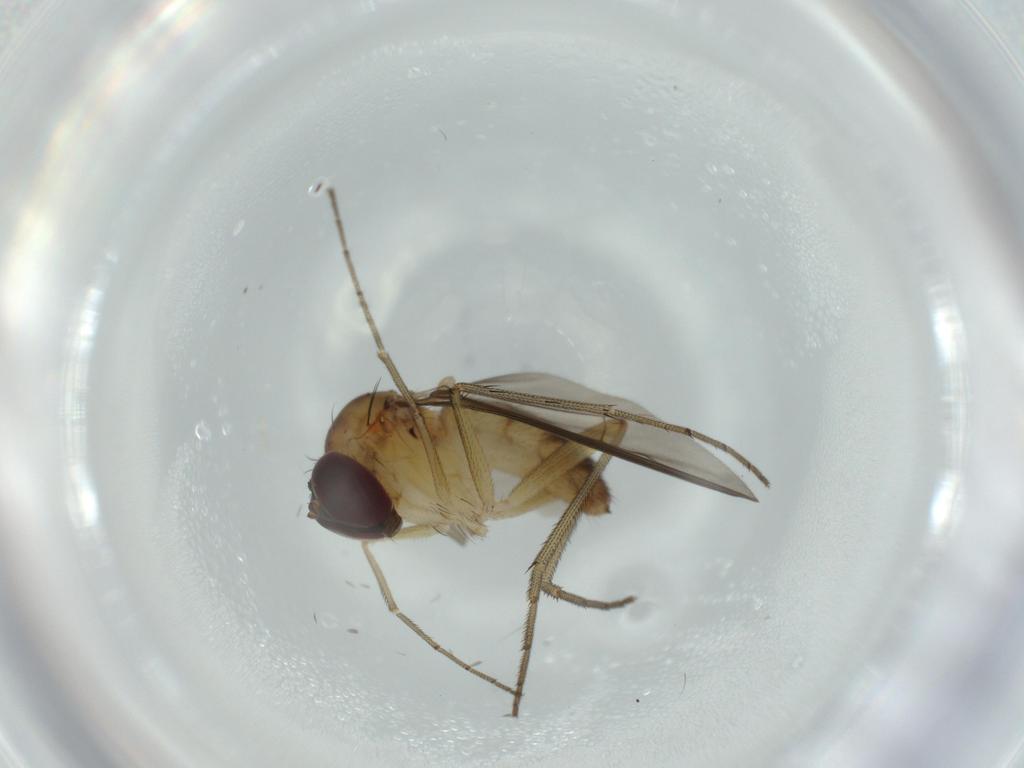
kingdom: Animalia
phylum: Arthropoda
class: Insecta
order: Diptera
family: Dolichopodidae
